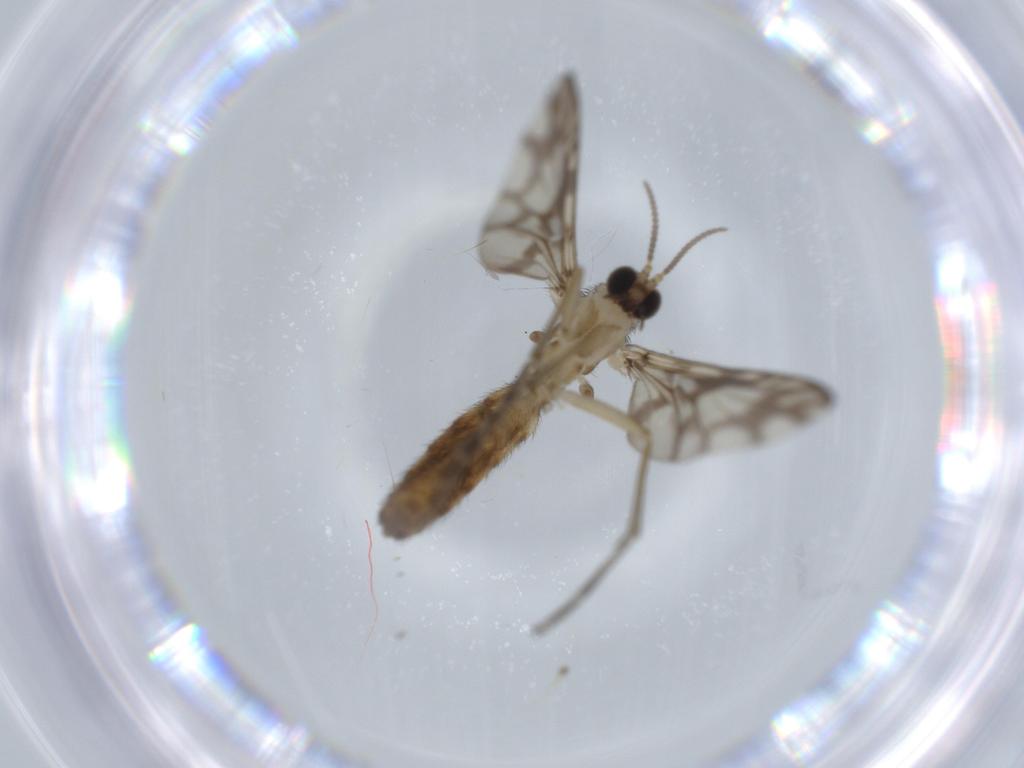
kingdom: Animalia
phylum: Arthropoda
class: Insecta
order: Diptera
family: Keroplatidae
